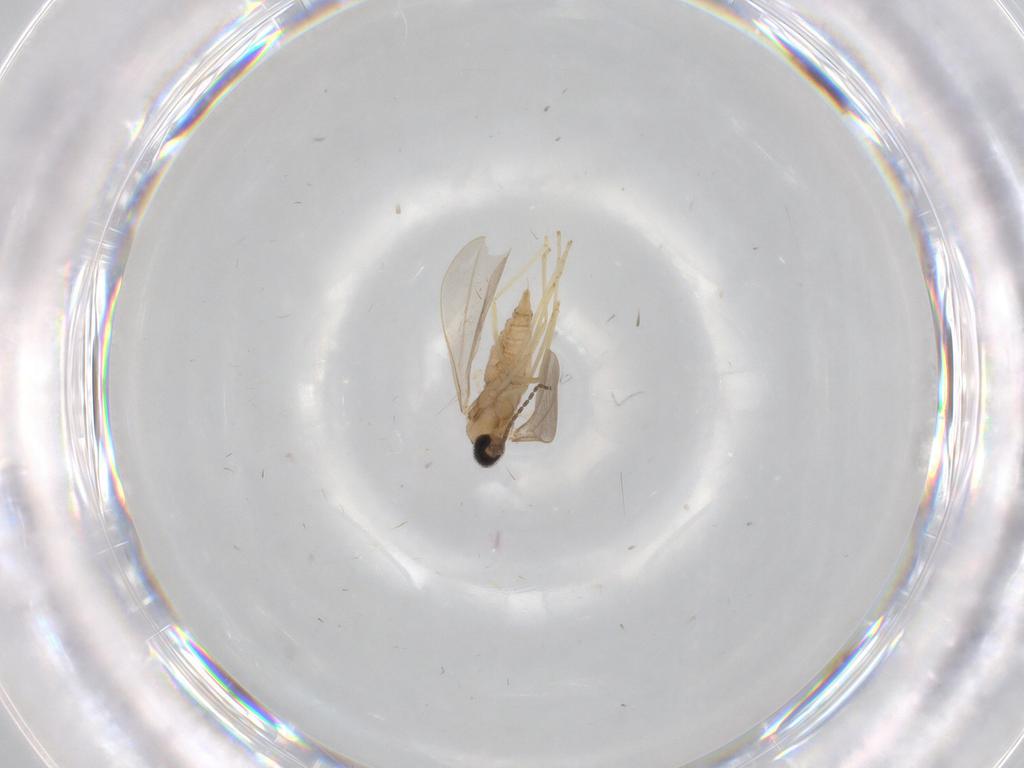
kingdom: Animalia
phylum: Arthropoda
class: Insecta
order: Diptera
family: Cecidomyiidae
